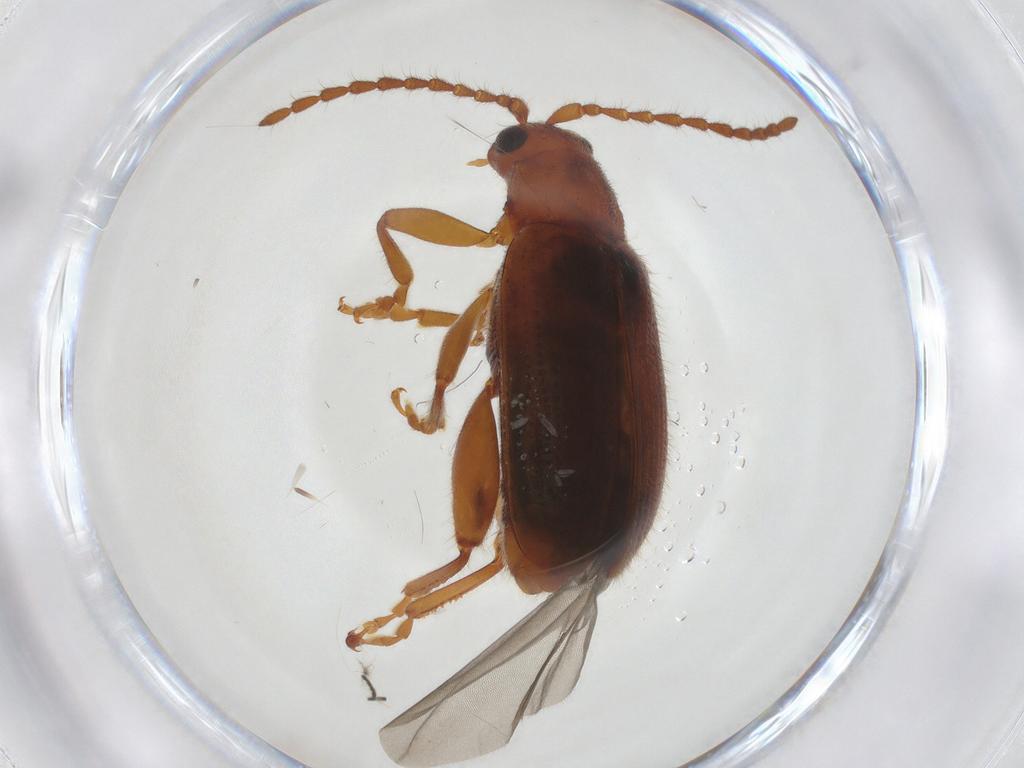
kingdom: Animalia
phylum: Arthropoda
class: Insecta
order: Coleoptera
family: Chrysomelidae
